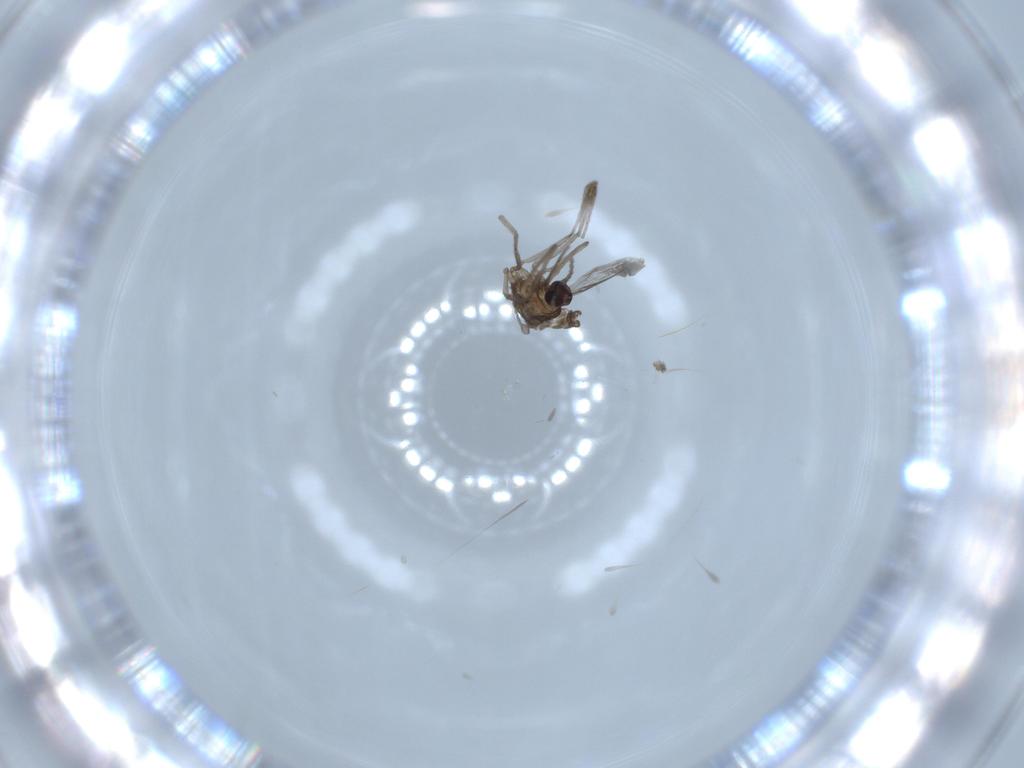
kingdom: Animalia
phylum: Arthropoda
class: Insecta
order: Diptera
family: Cecidomyiidae
